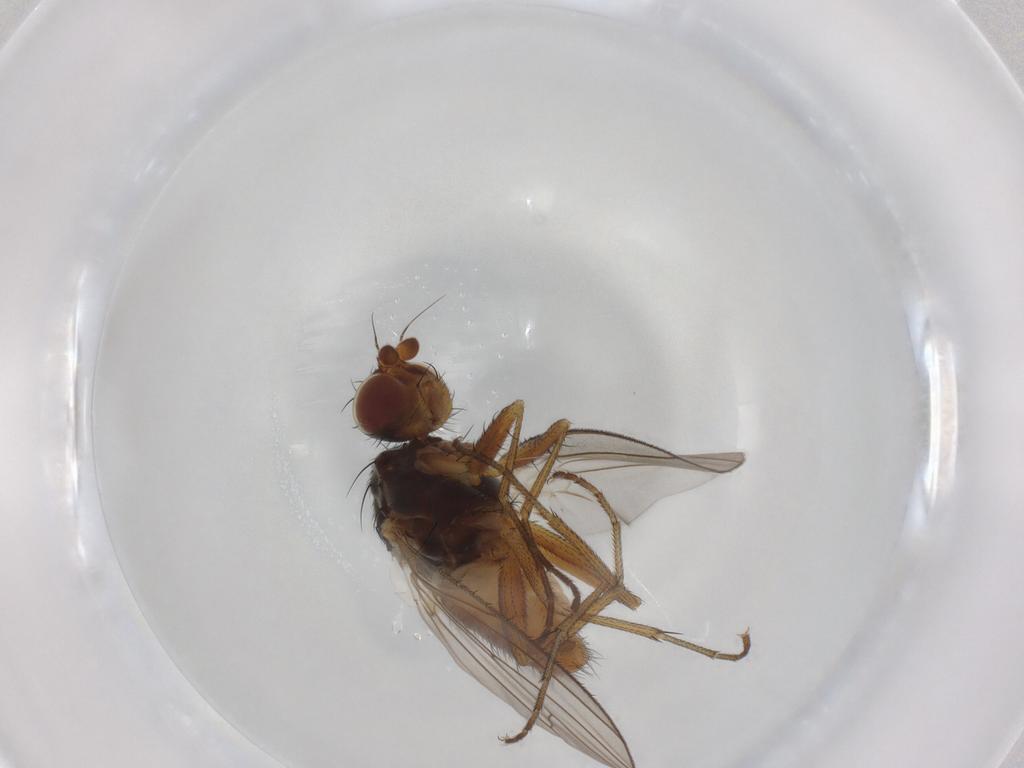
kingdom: Animalia
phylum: Arthropoda
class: Insecta
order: Diptera
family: Heleomyzidae
